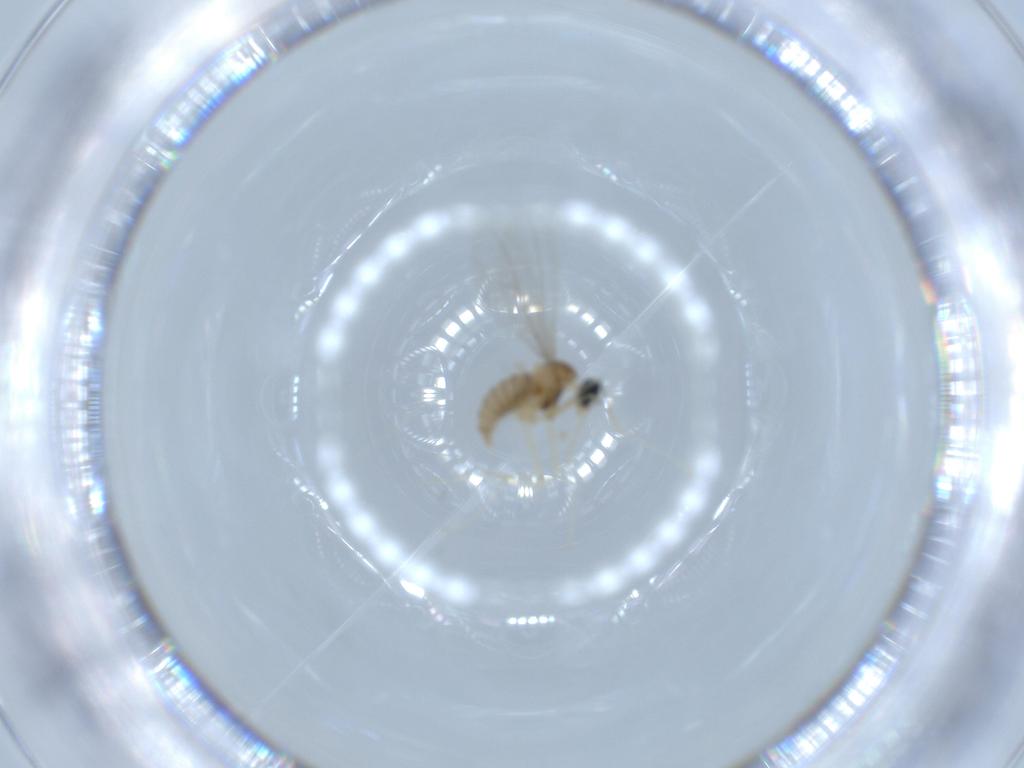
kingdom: Animalia
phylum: Arthropoda
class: Insecta
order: Diptera
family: Cecidomyiidae
